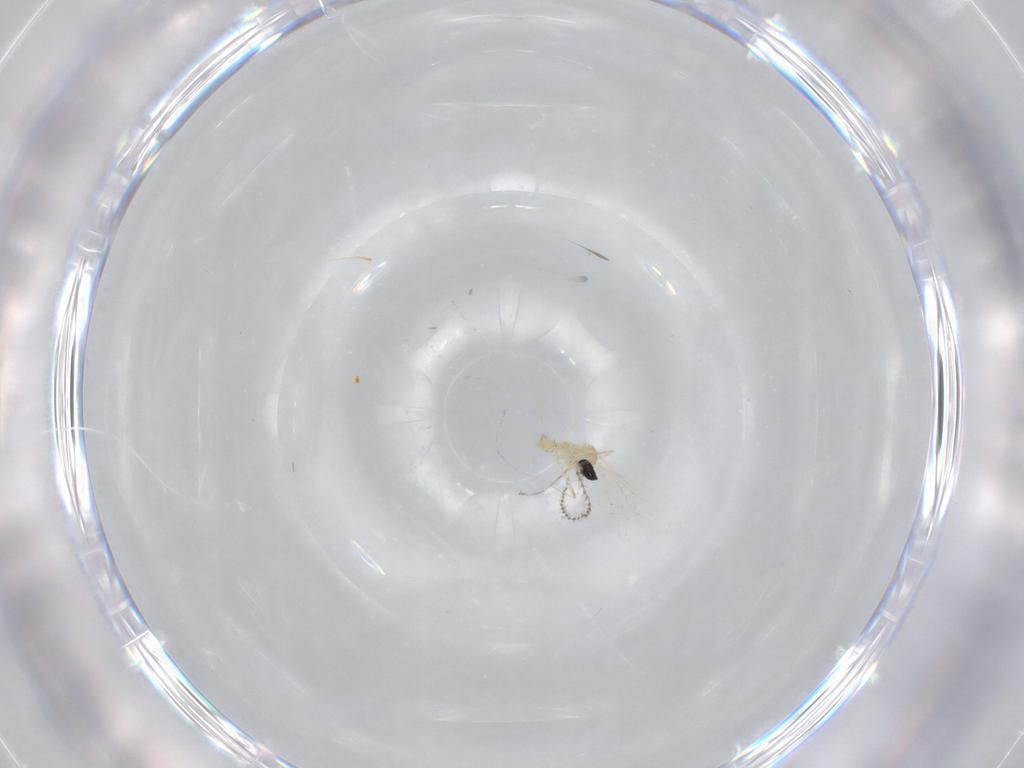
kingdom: Animalia
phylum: Arthropoda
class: Insecta
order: Diptera
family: Cecidomyiidae
